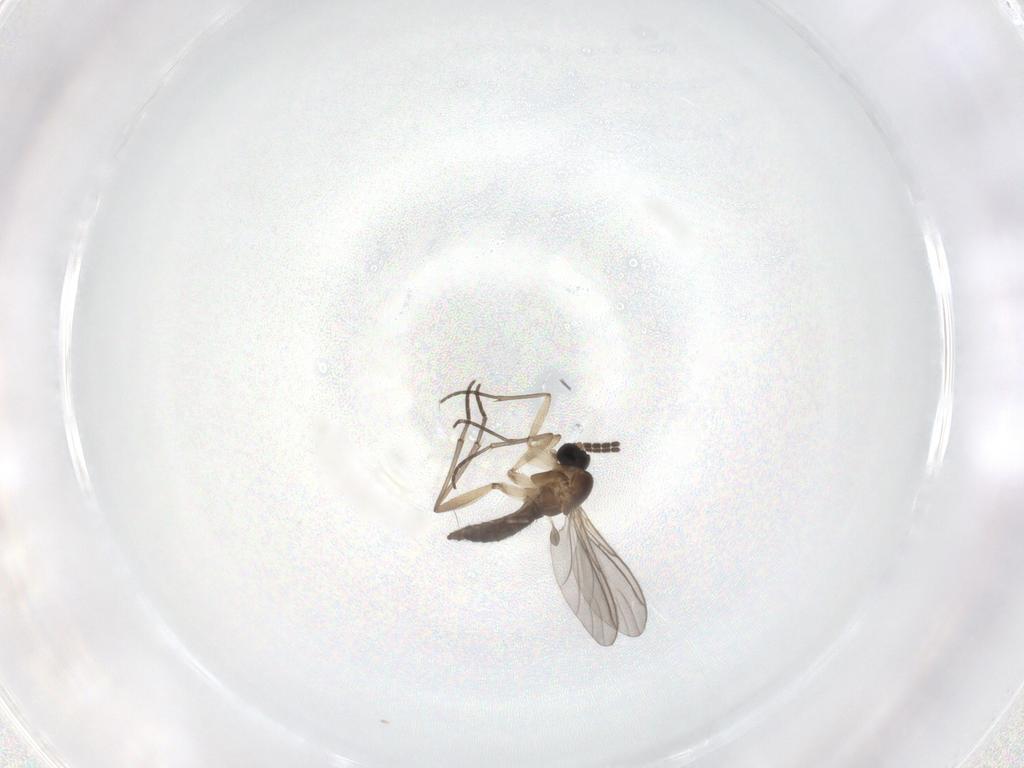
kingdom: Animalia
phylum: Arthropoda
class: Insecta
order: Diptera
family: Sciaridae
